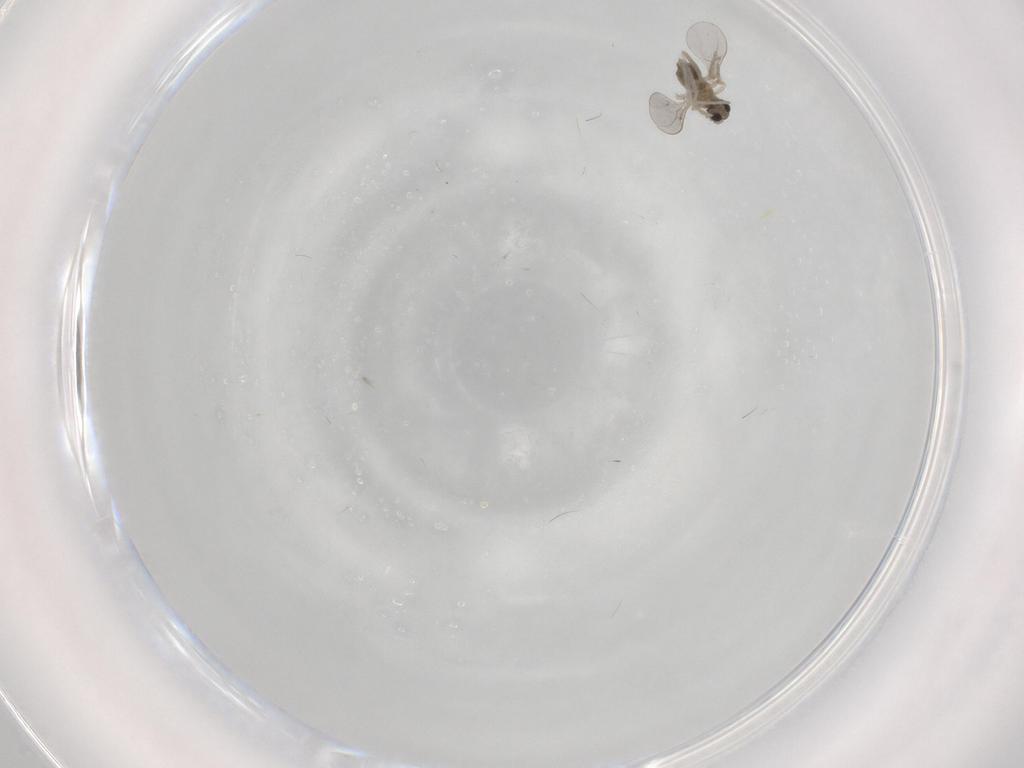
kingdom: Animalia
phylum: Arthropoda
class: Insecta
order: Diptera
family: Cecidomyiidae
